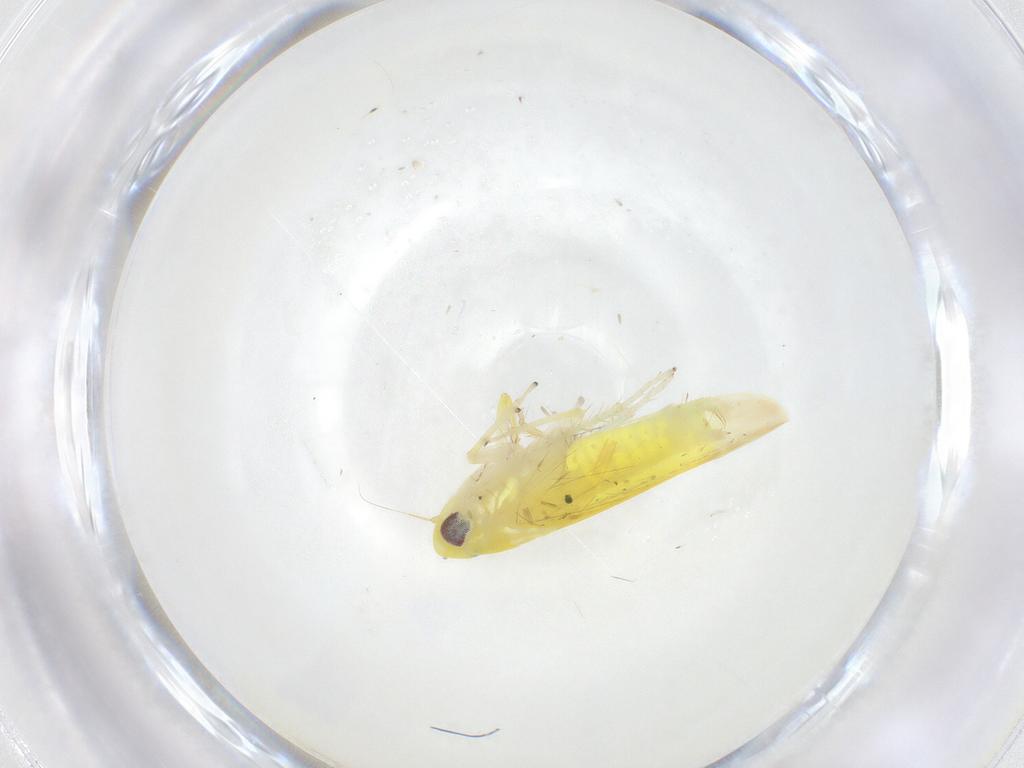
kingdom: Animalia
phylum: Arthropoda
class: Insecta
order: Hemiptera
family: Cicadellidae
